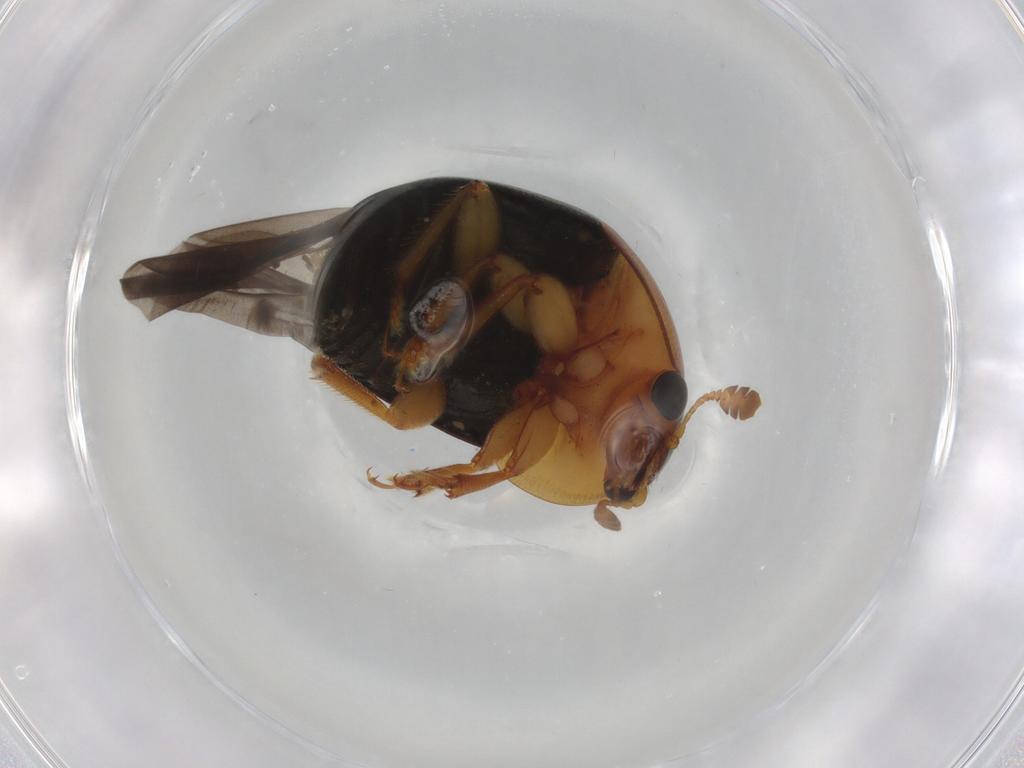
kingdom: Animalia
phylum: Arthropoda
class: Insecta
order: Coleoptera
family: Nitidulidae
